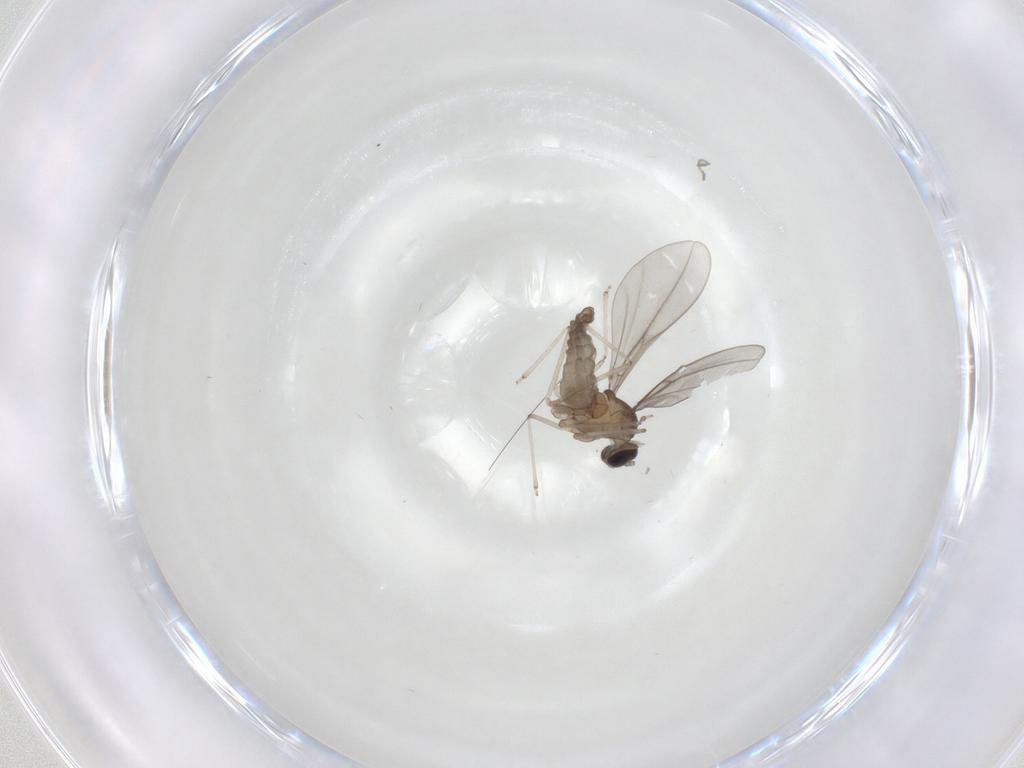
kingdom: Animalia
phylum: Arthropoda
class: Insecta
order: Diptera
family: Cecidomyiidae
